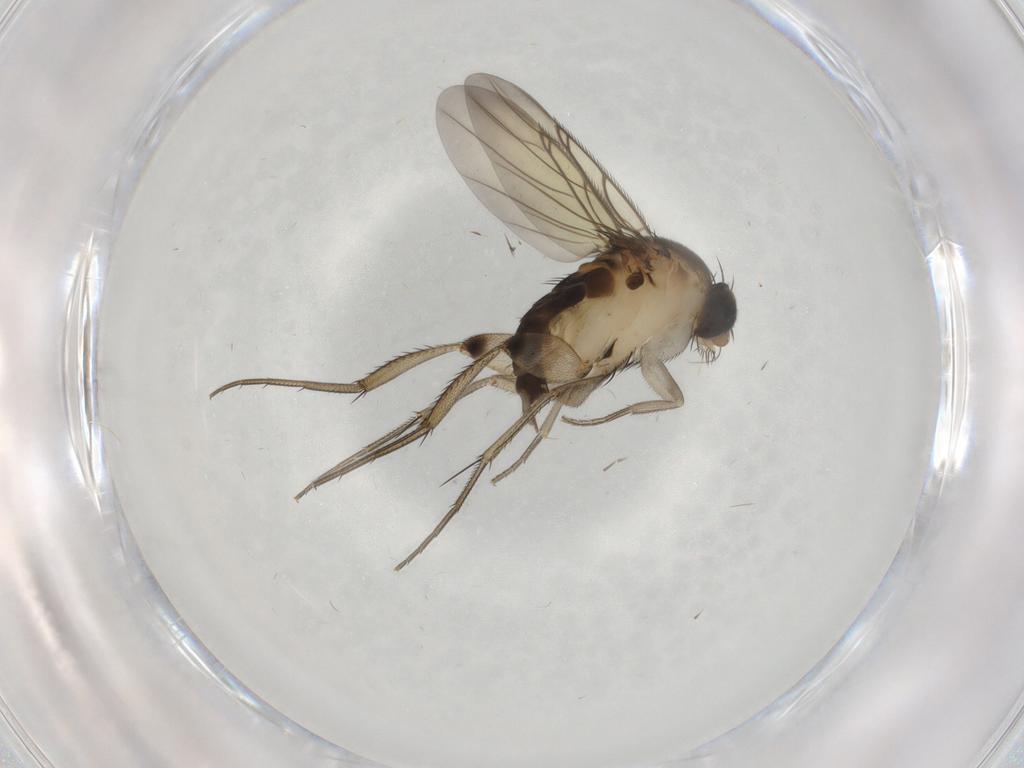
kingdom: Animalia
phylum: Arthropoda
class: Insecta
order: Diptera
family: Phoridae
